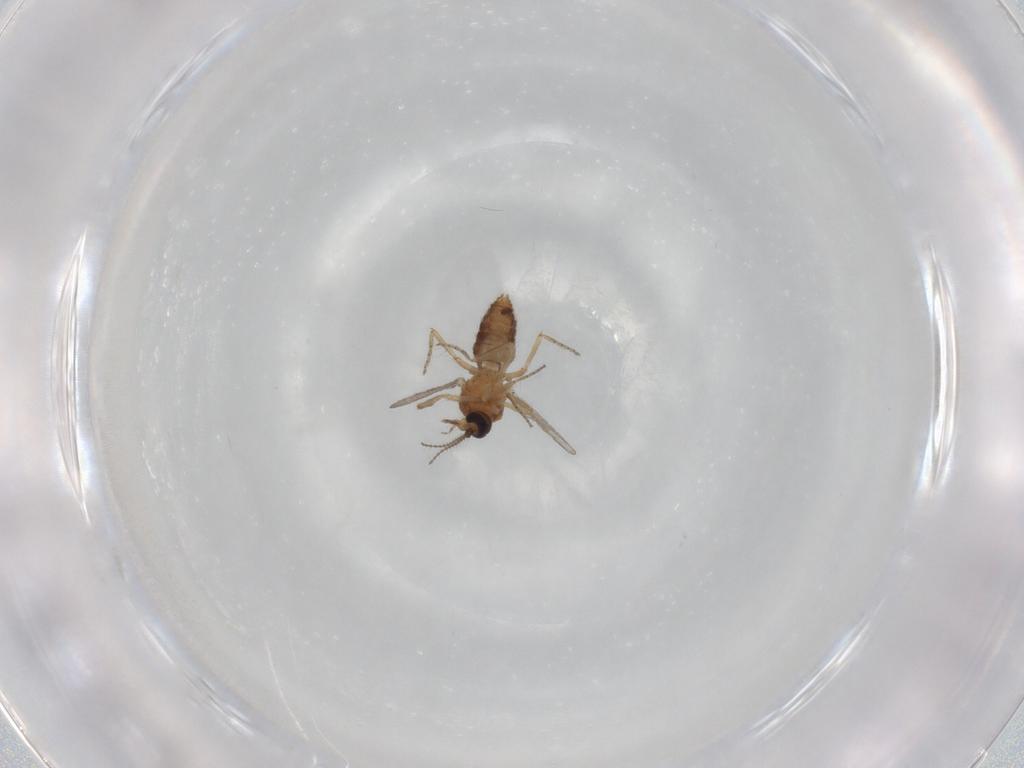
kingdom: Animalia
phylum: Arthropoda
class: Insecta
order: Diptera
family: Ceratopogonidae
